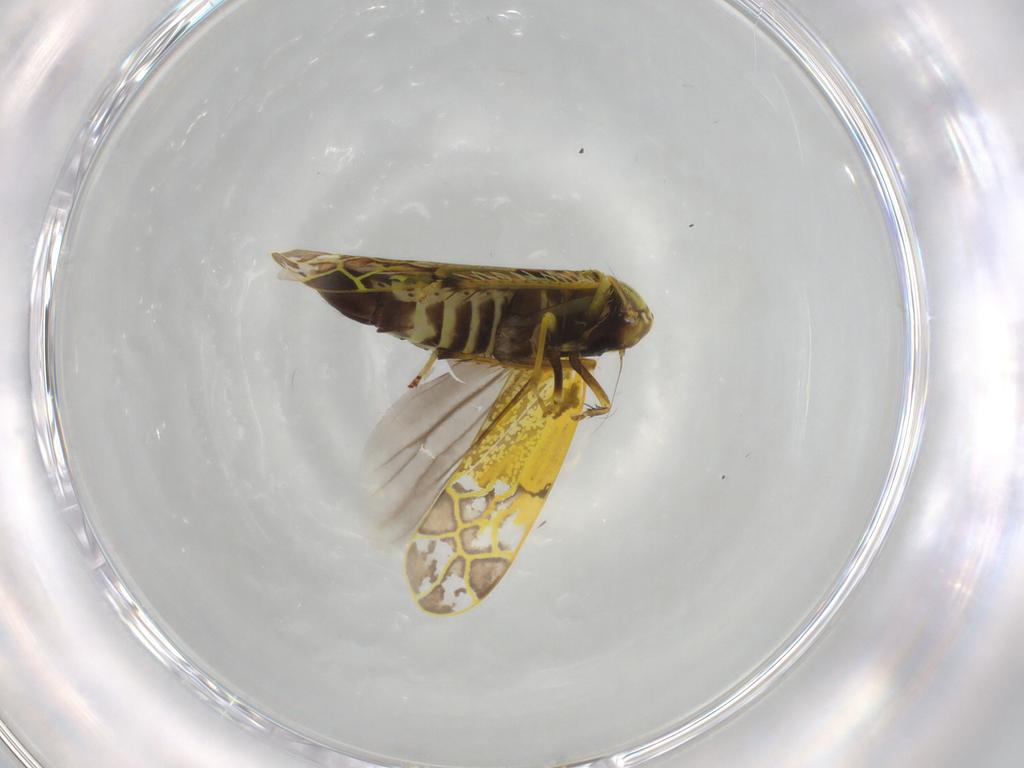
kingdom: Animalia
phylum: Arthropoda
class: Insecta
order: Hemiptera
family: Cicadellidae
